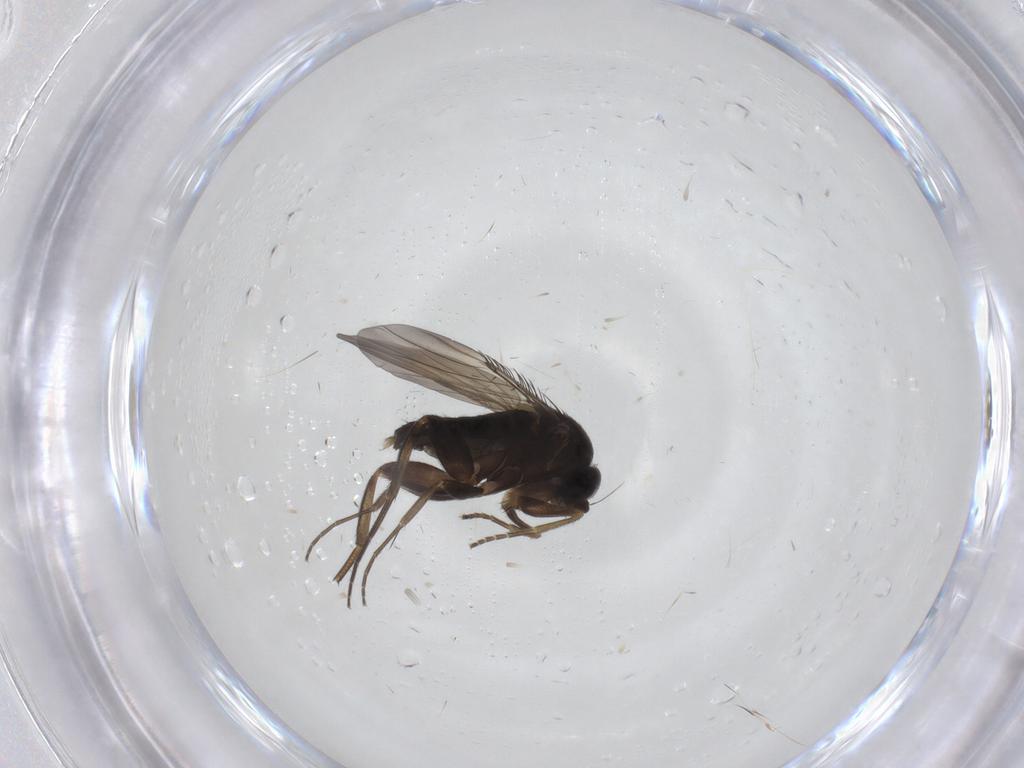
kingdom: Animalia
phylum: Arthropoda
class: Insecta
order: Diptera
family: Phoridae
